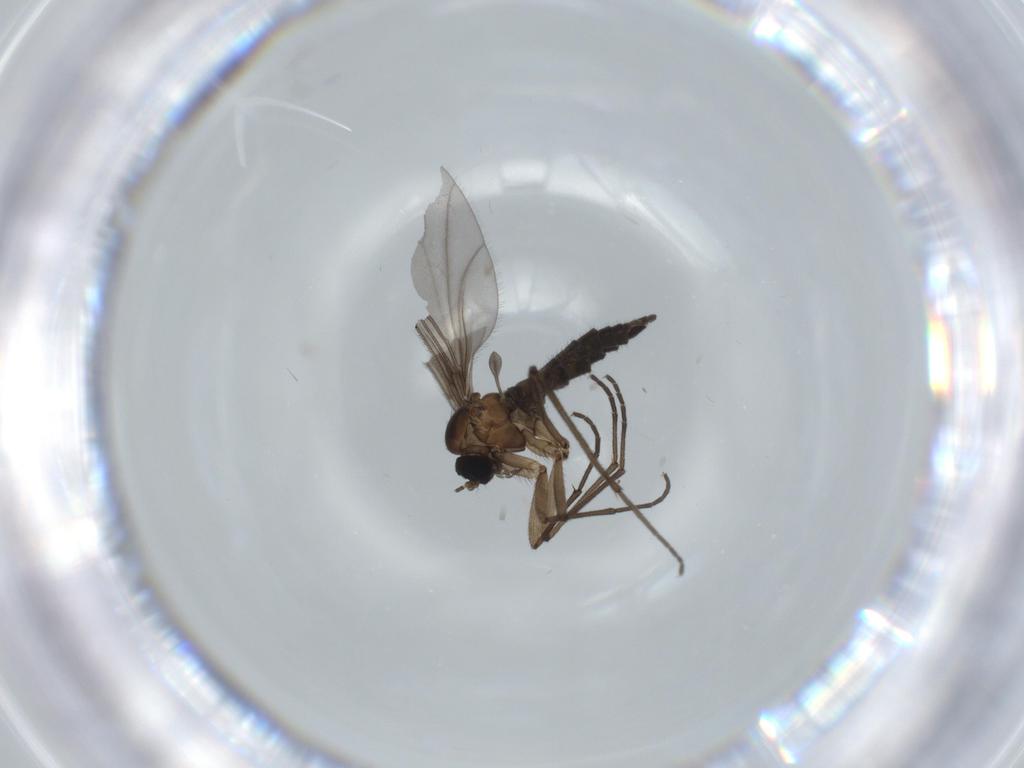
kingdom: Animalia
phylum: Arthropoda
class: Insecta
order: Diptera
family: Sciaridae
